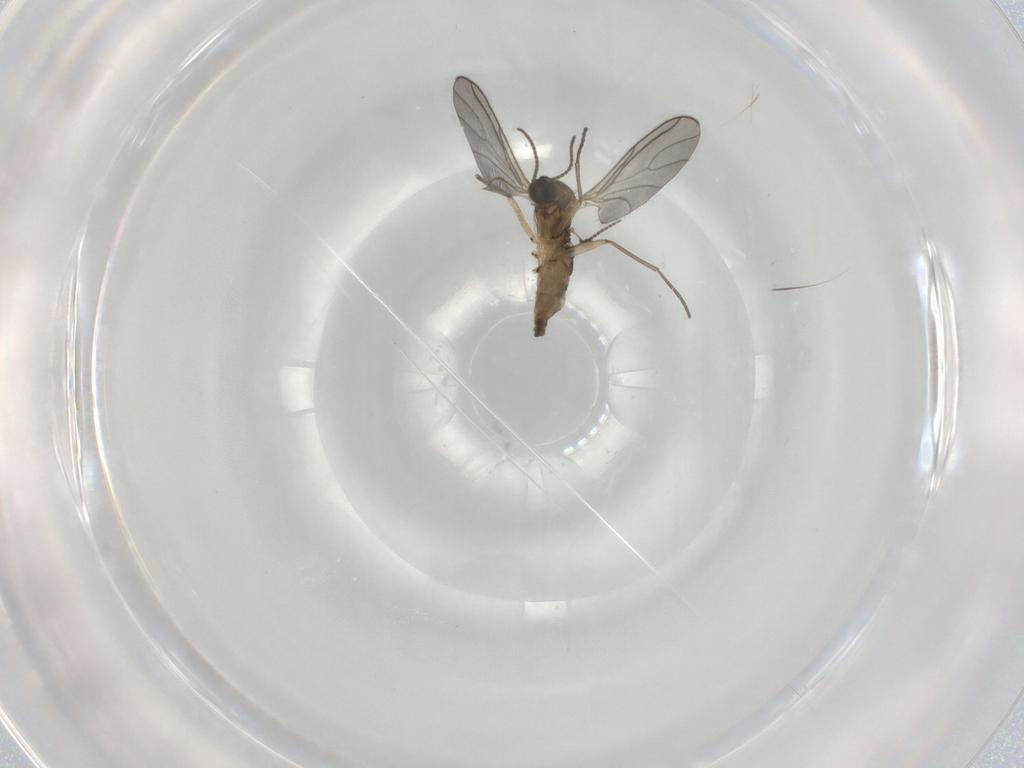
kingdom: Animalia
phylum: Arthropoda
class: Insecta
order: Diptera
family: Sciaridae
